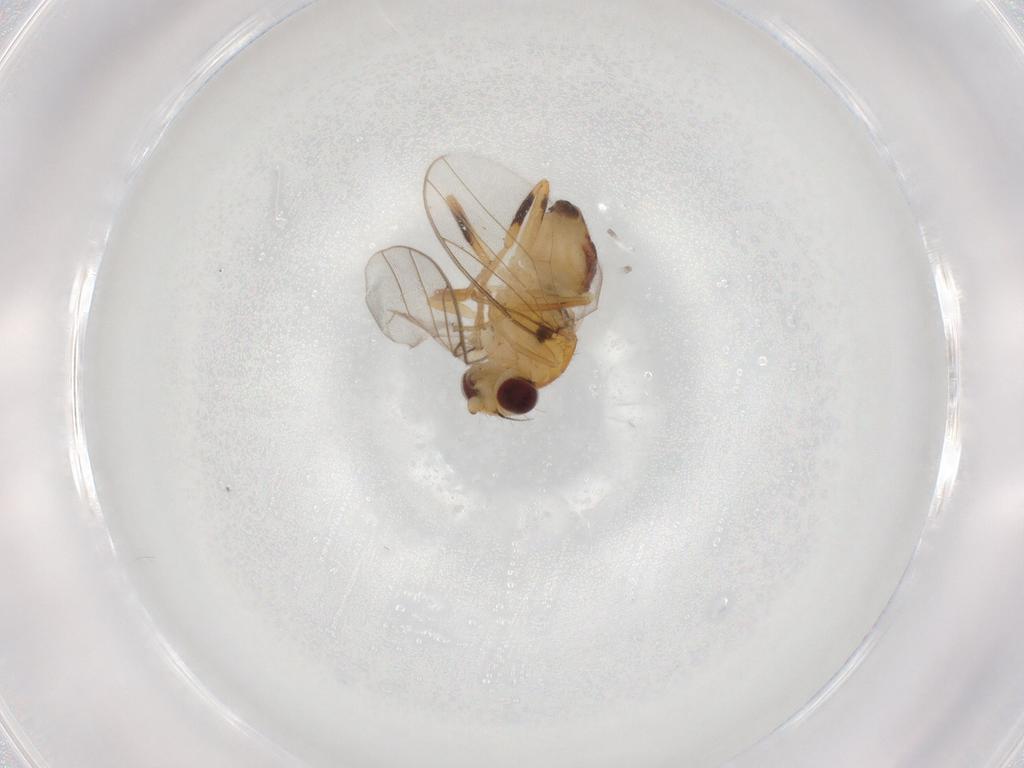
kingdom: Animalia
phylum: Arthropoda
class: Insecta
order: Diptera
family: Chloropidae
